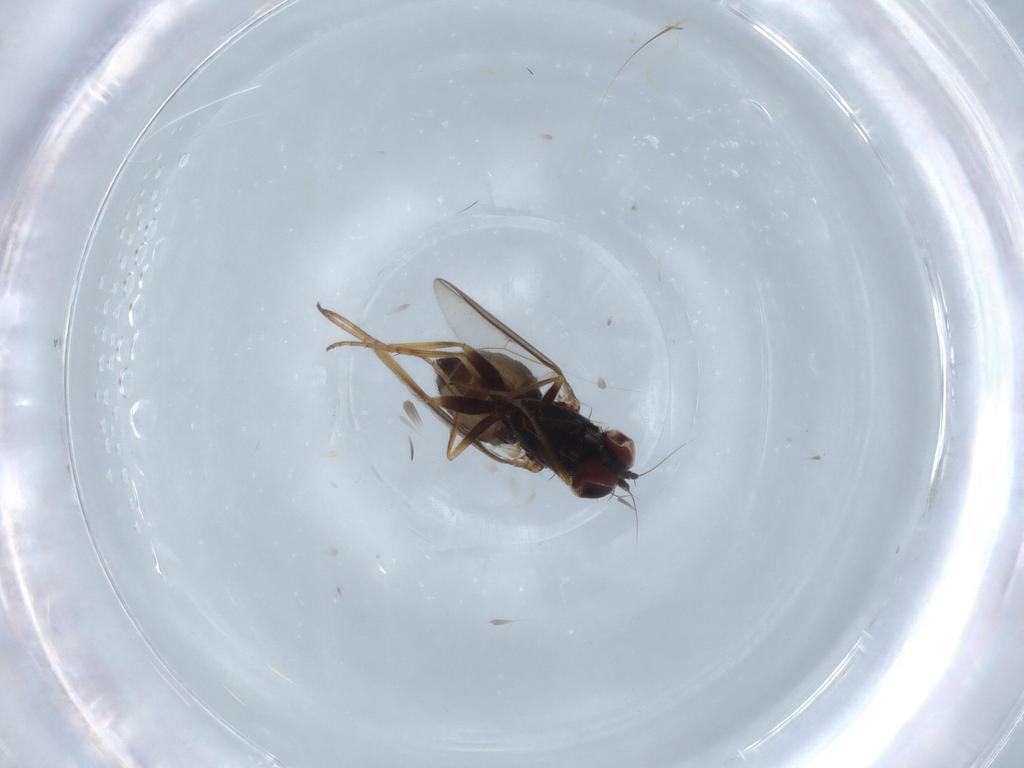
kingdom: Animalia
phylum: Arthropoda
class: Insecta
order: Diptera
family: Dolichopodidae
